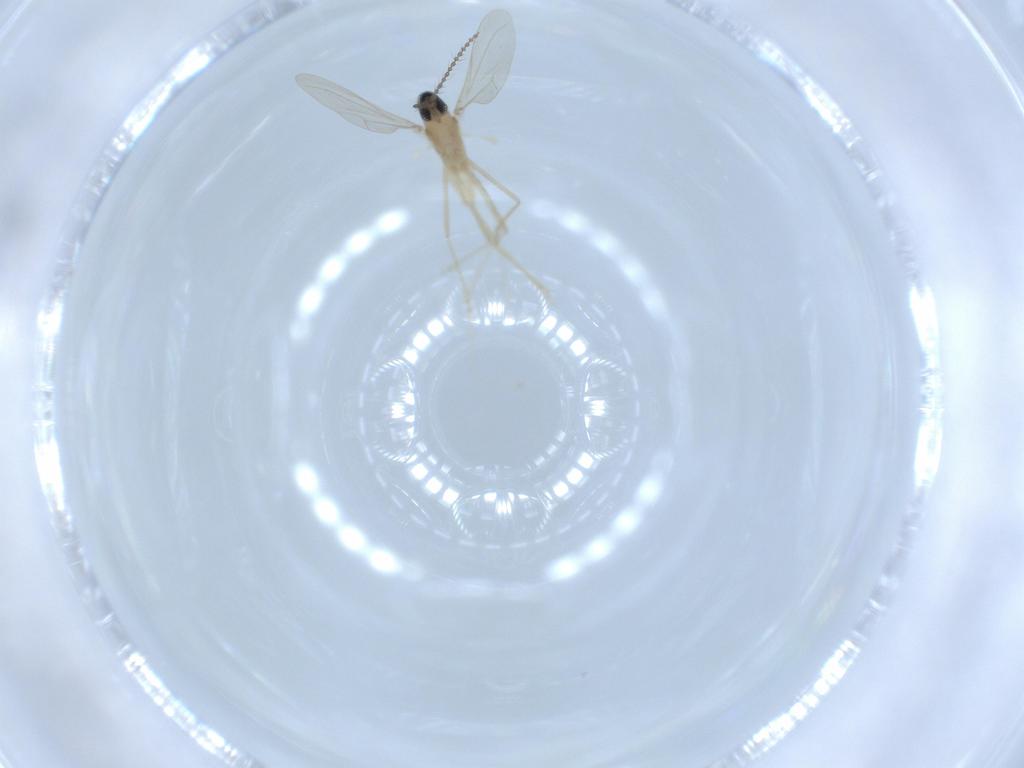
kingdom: Animalia
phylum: Arthropoda
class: Insecta
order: Diptera
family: Cecidomyiidae
